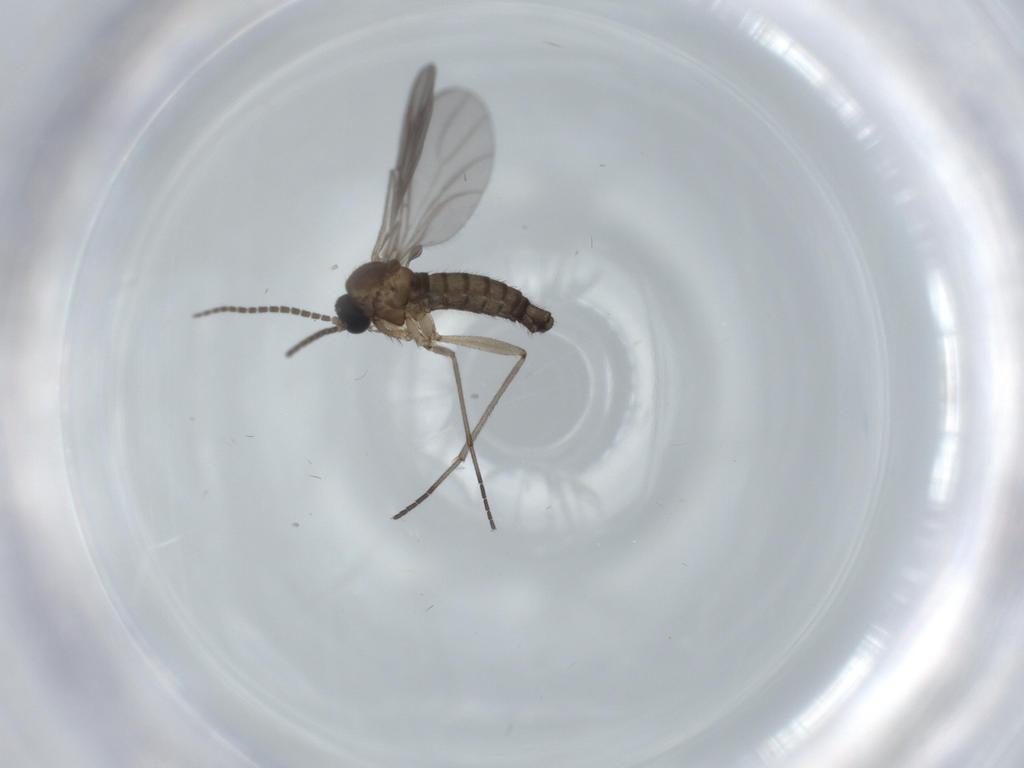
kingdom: Animalia
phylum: Arthropoda
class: Insecta
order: Diptera
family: Sciaridae
